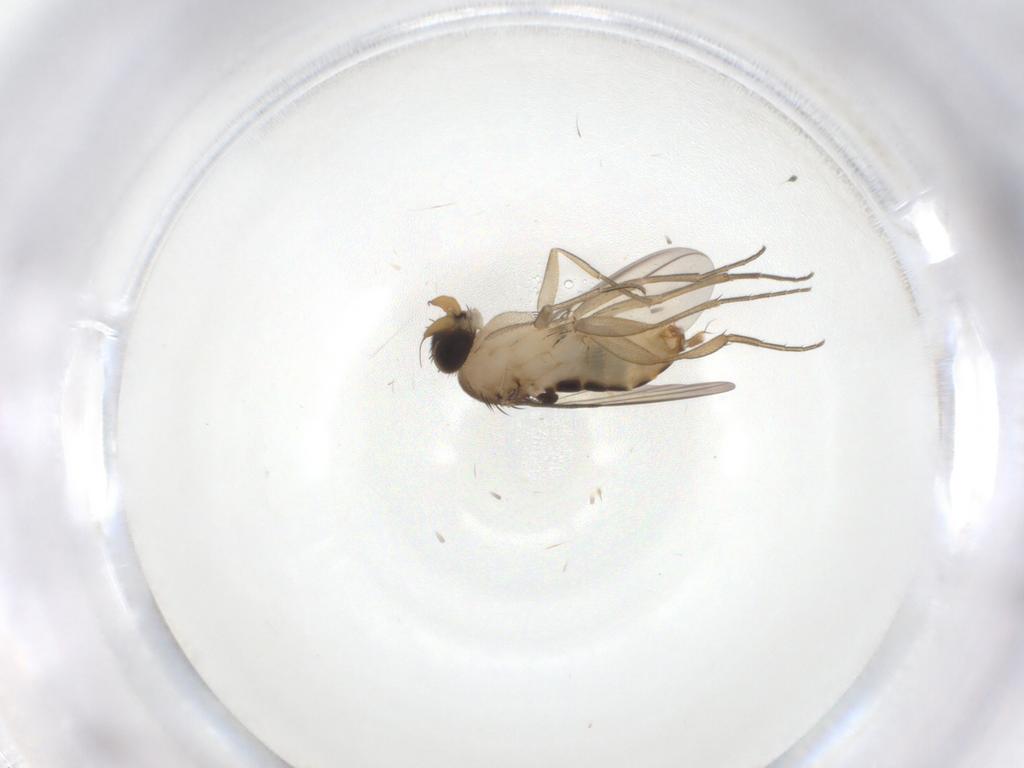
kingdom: Animalia
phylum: Arthropoda
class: Insecta
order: Diptera
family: Phoridae
